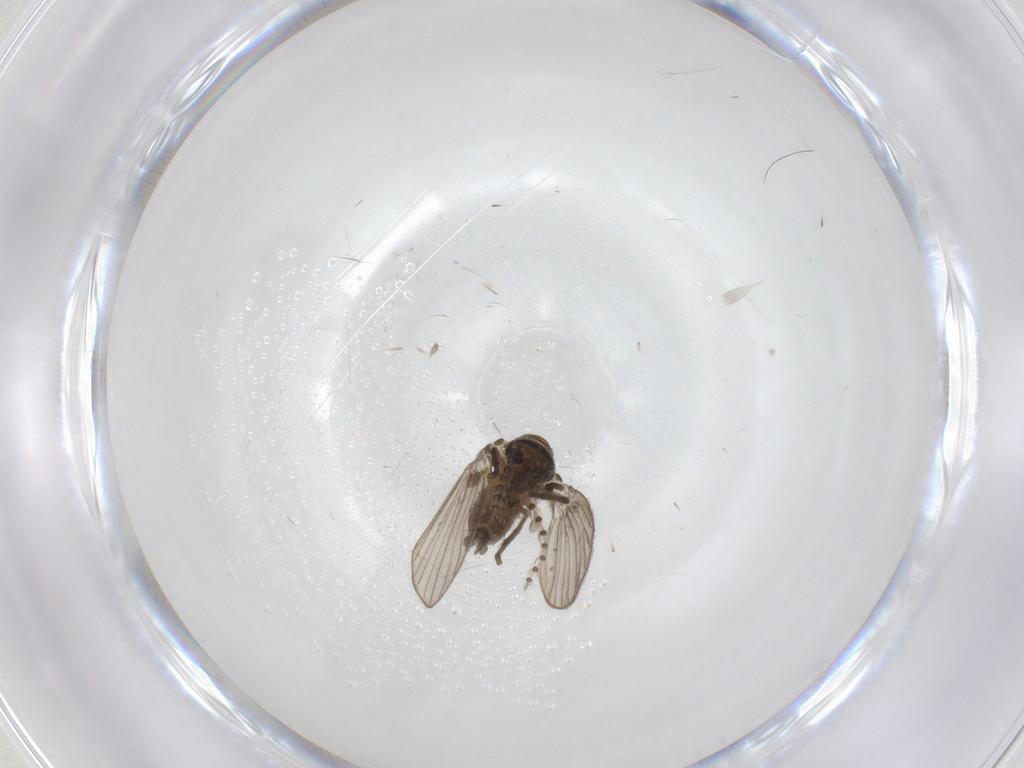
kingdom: Animalia
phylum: Arthropoda
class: Insecta
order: Diptera
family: Psychodidae
